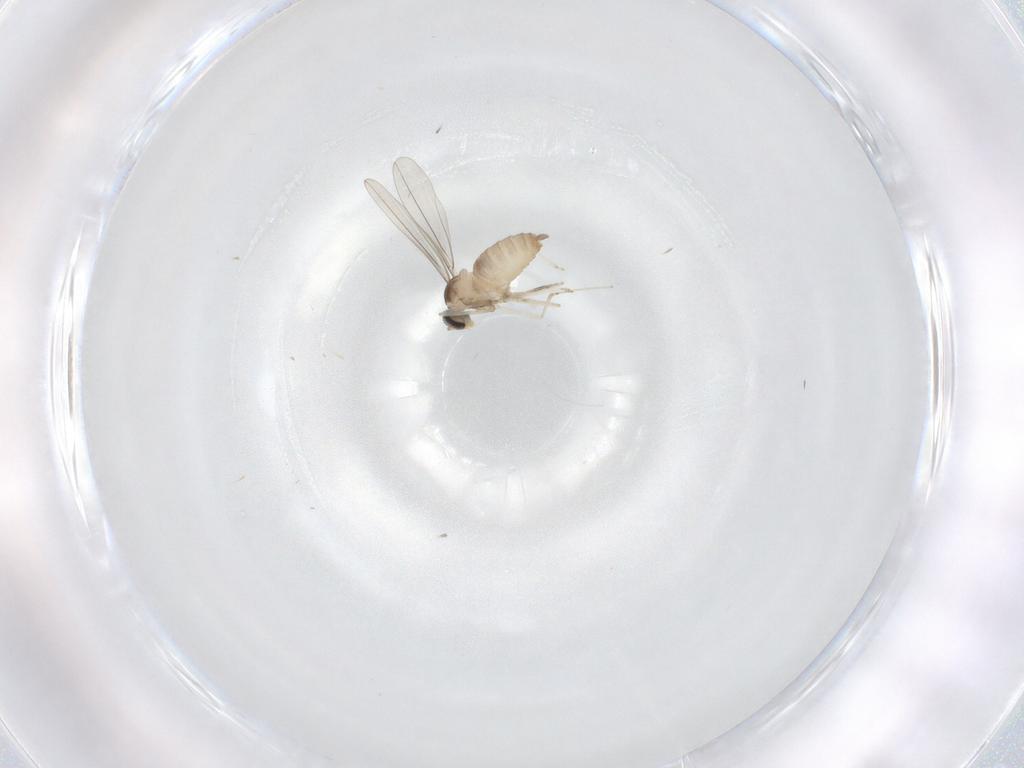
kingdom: Animalia
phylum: Arthropoda
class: Insecta
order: Diptera
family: Cecidomyiidae
